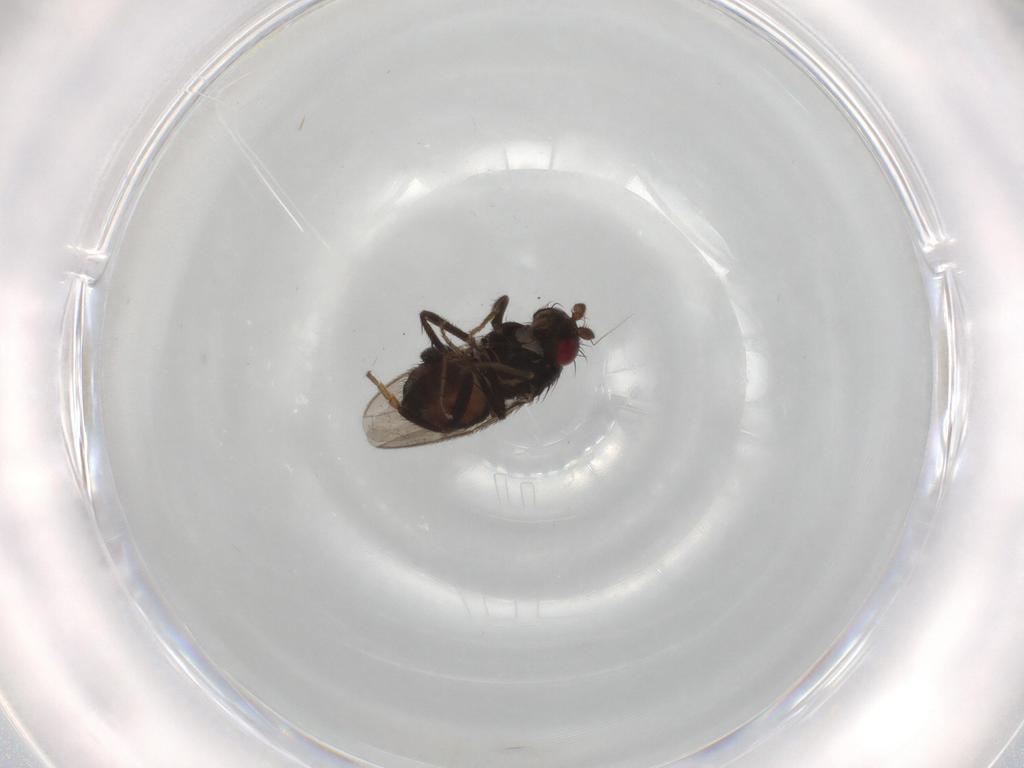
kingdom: Animalia
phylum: Arthropoda
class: Insecta
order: Diptera
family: Sphaeroceridae
